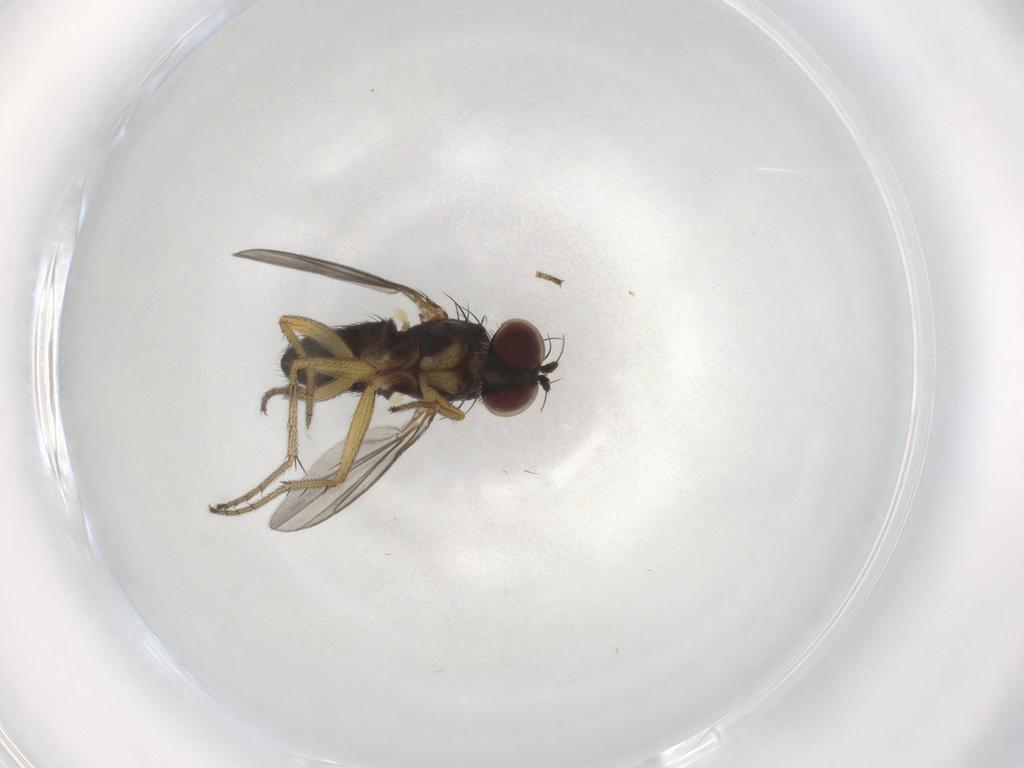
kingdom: Animalia
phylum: Arthropoda
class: Insecta
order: Diptera
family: Dolichopodidae
